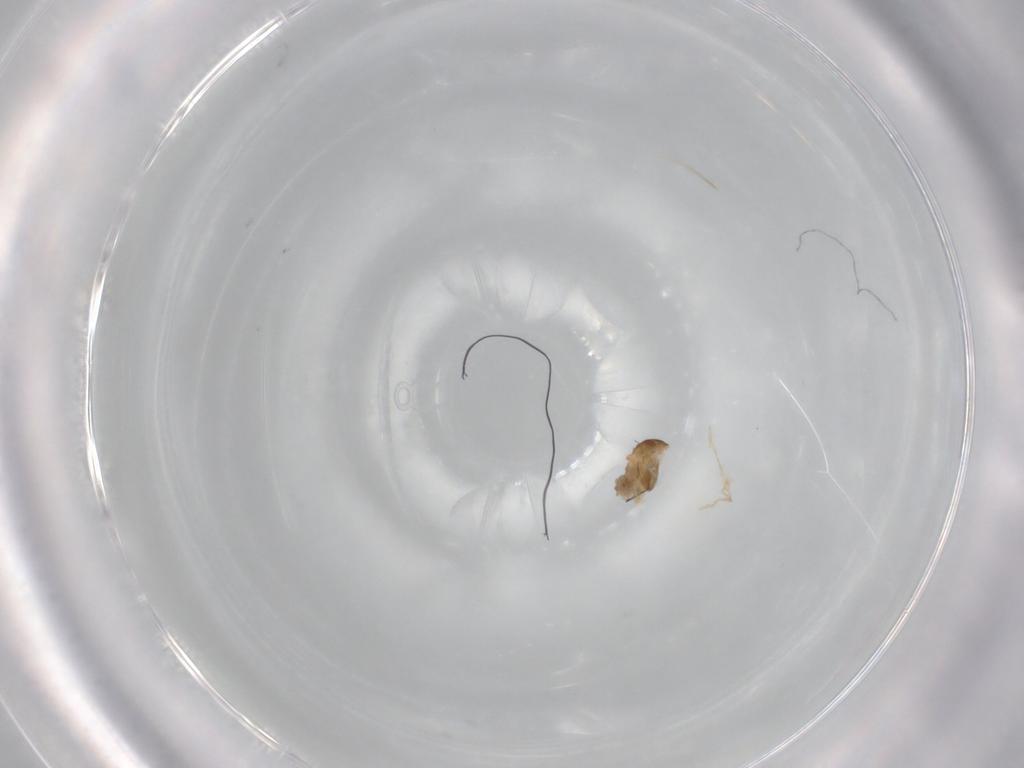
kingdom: Animalia
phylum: Arthropoda
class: Insecta
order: Diptera
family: Cecidomyiidae
